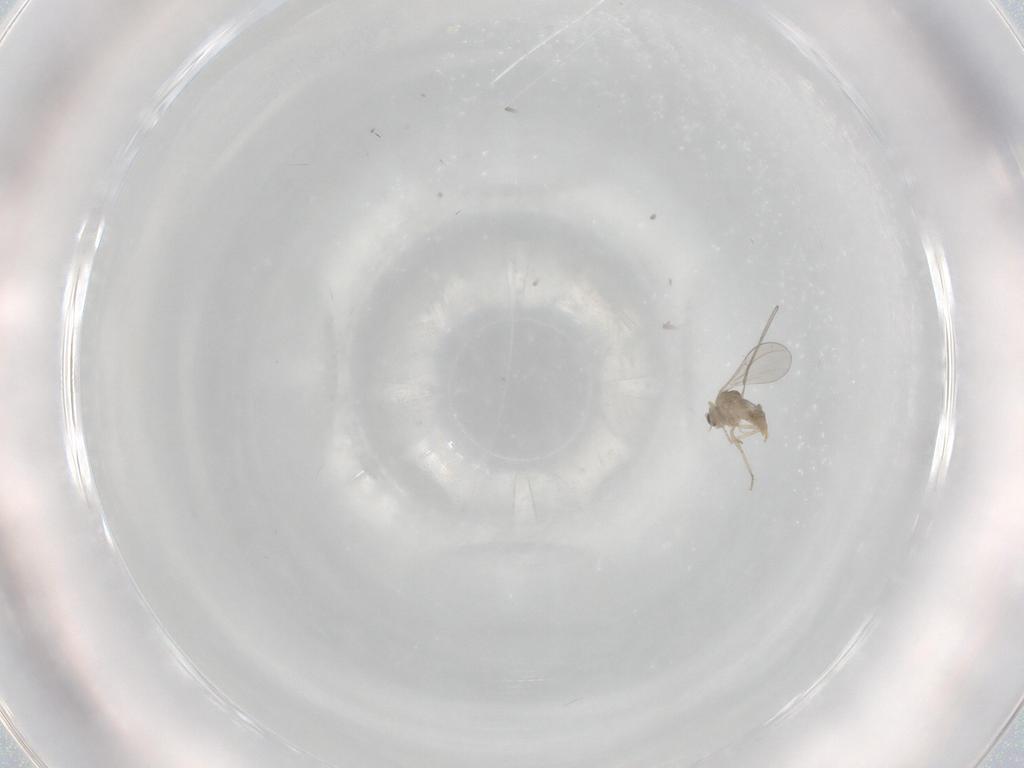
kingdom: Animalia
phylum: Arthropoda
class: Insecta
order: Diptera
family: Cecidomyiidae
